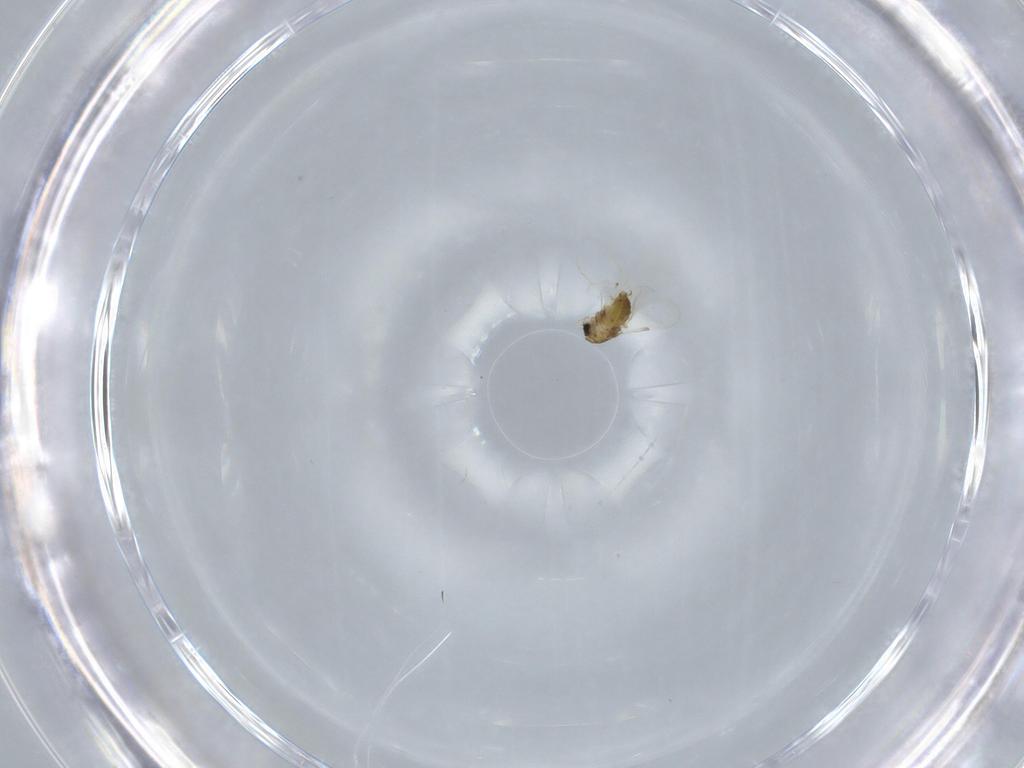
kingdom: Animalia
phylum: Arthropoda
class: Insecta
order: Diptera
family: Chironomidae
